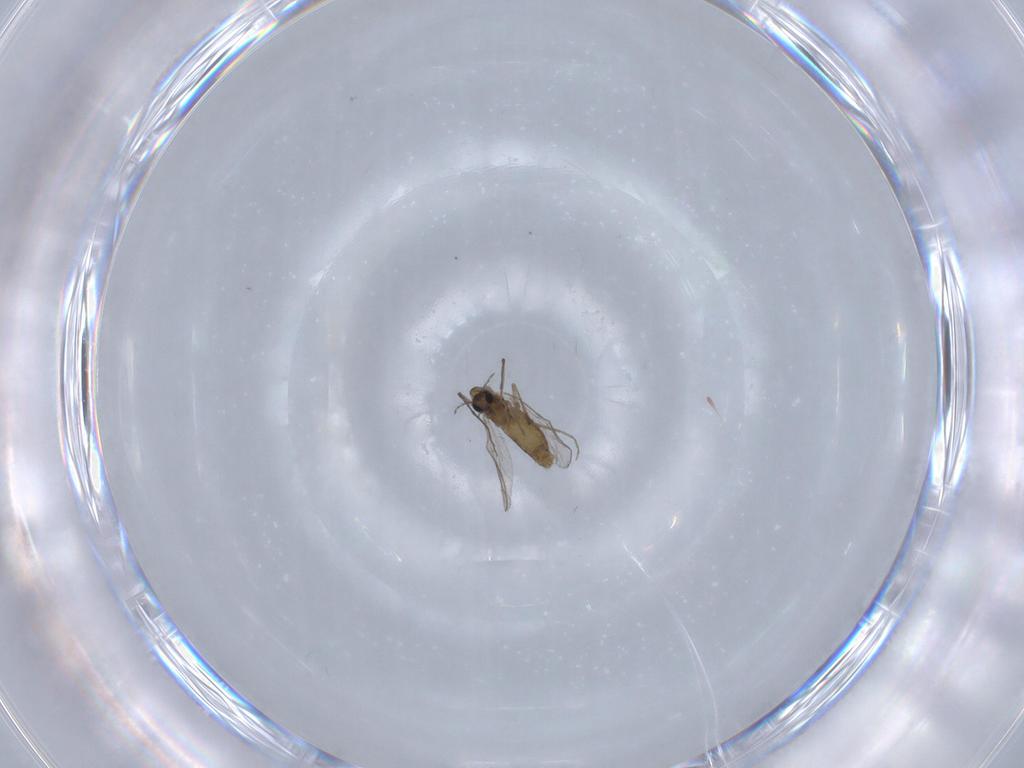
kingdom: Animalia
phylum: Arthropoda
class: Insecta
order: Diptera
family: Chironomidae
